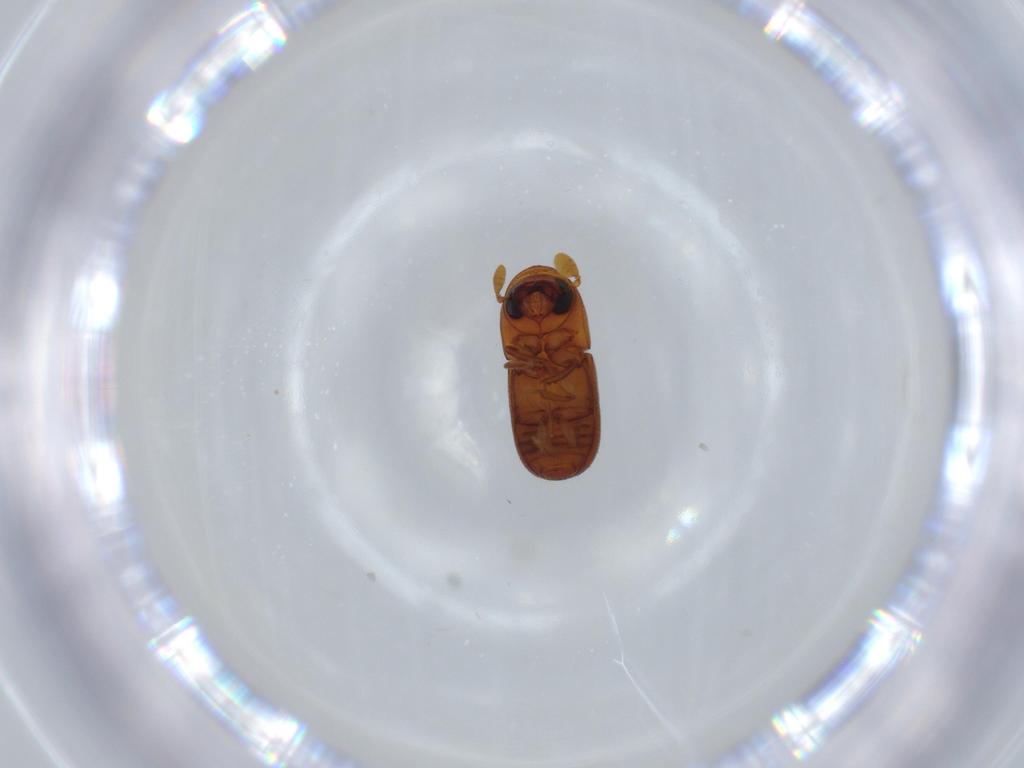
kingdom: Animalia
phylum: Arthropoda
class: Insecta
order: Coleoptera
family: Curculionidae
